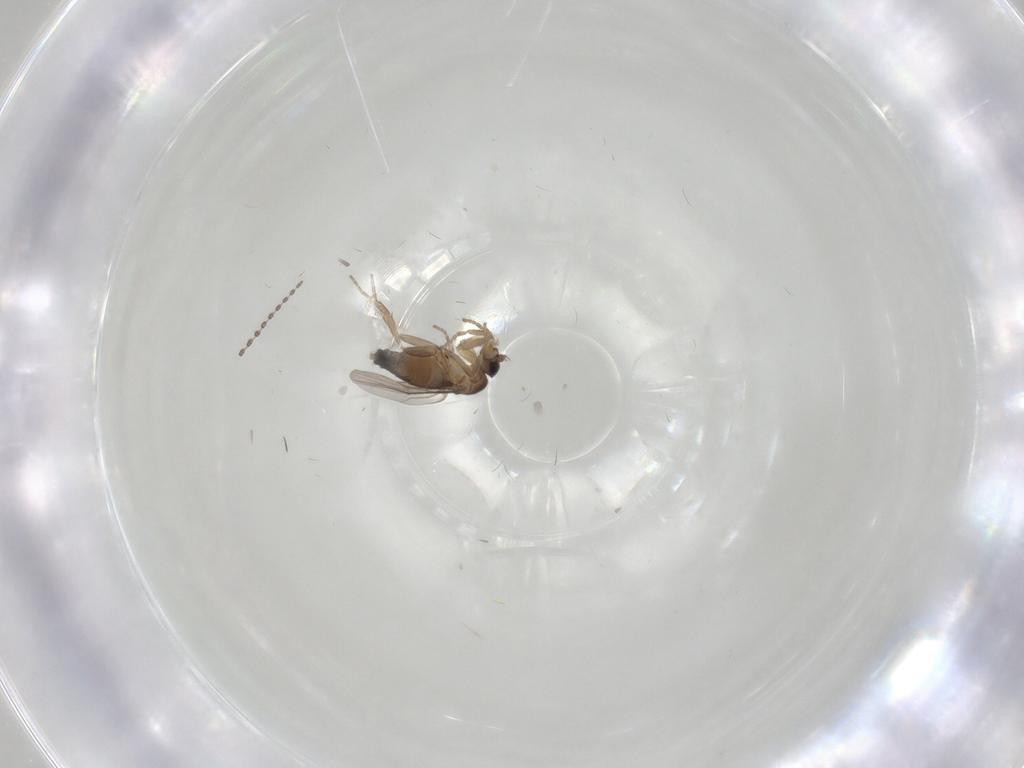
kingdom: Animalia
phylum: Arthropoda
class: Insecta
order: Diptera
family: Phoridae
